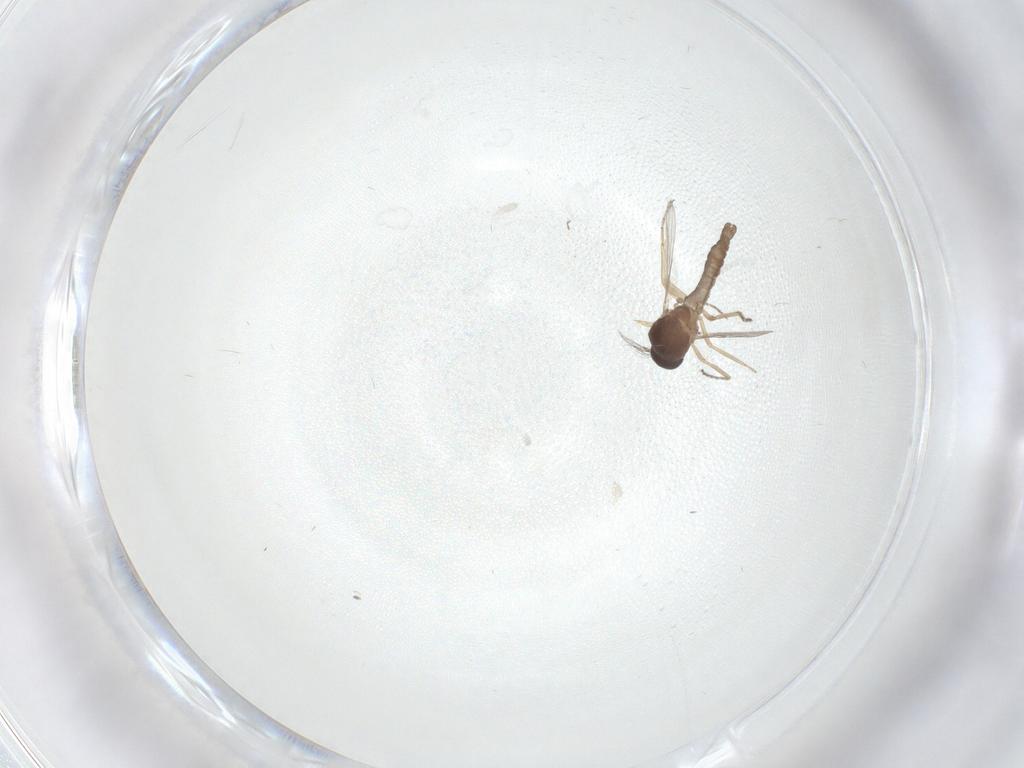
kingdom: Animalia
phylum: Arthropoda
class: Insecta
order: Diptera
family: Ceratopogonidae
